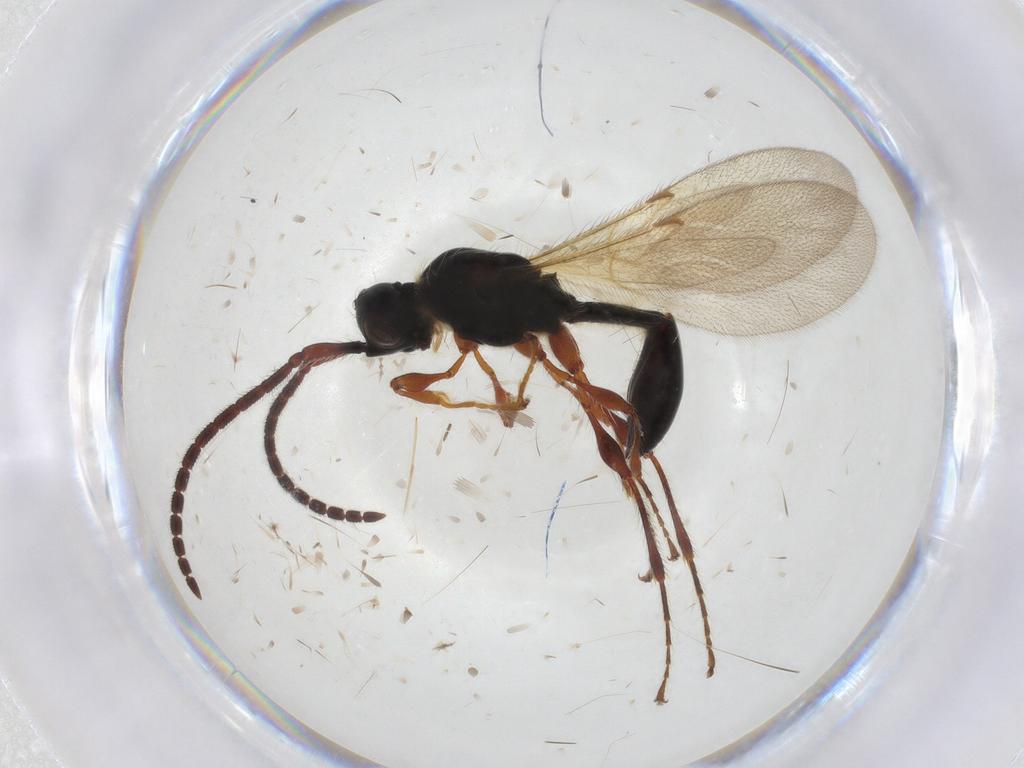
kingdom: Animalia
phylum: Arthropoda
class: Insecta
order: Hymenoptera
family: Diapriidae
